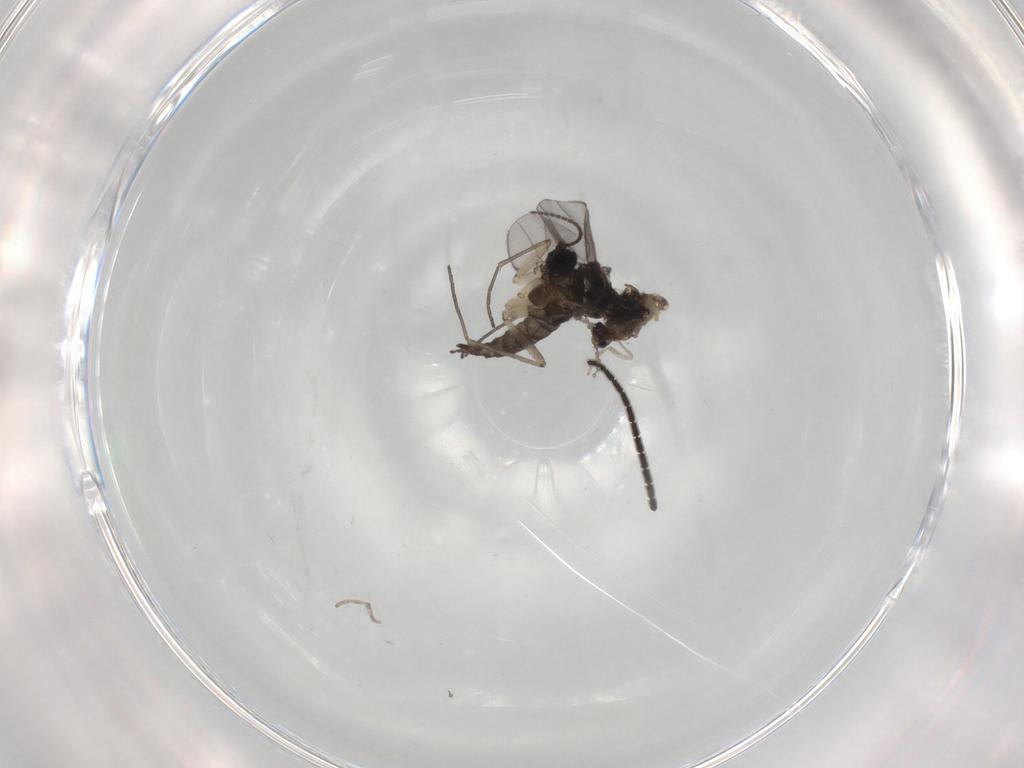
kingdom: Animalia
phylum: Arthropoda
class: Insecta
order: Diptera
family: Sciaridae
